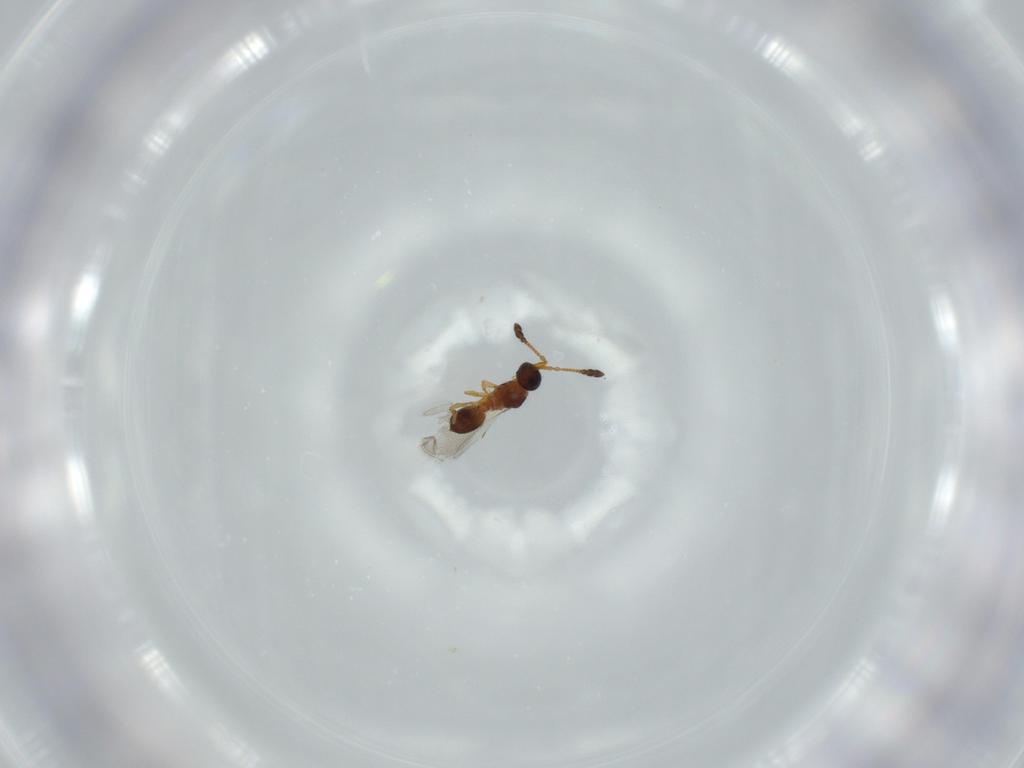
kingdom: Animalia
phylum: Arthropoda
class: Insecta
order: Hymenoptera
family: Diapriidae
